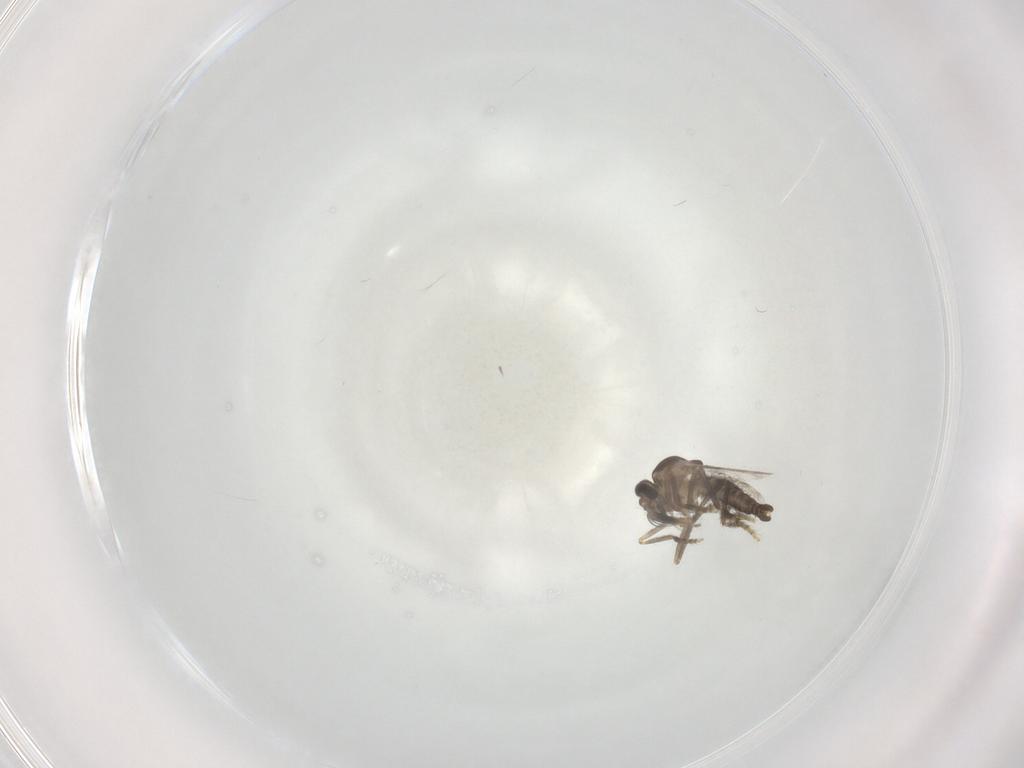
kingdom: Animalia
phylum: Arthropoda
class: Insecta
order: Diptera
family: Ceratopogonidae
